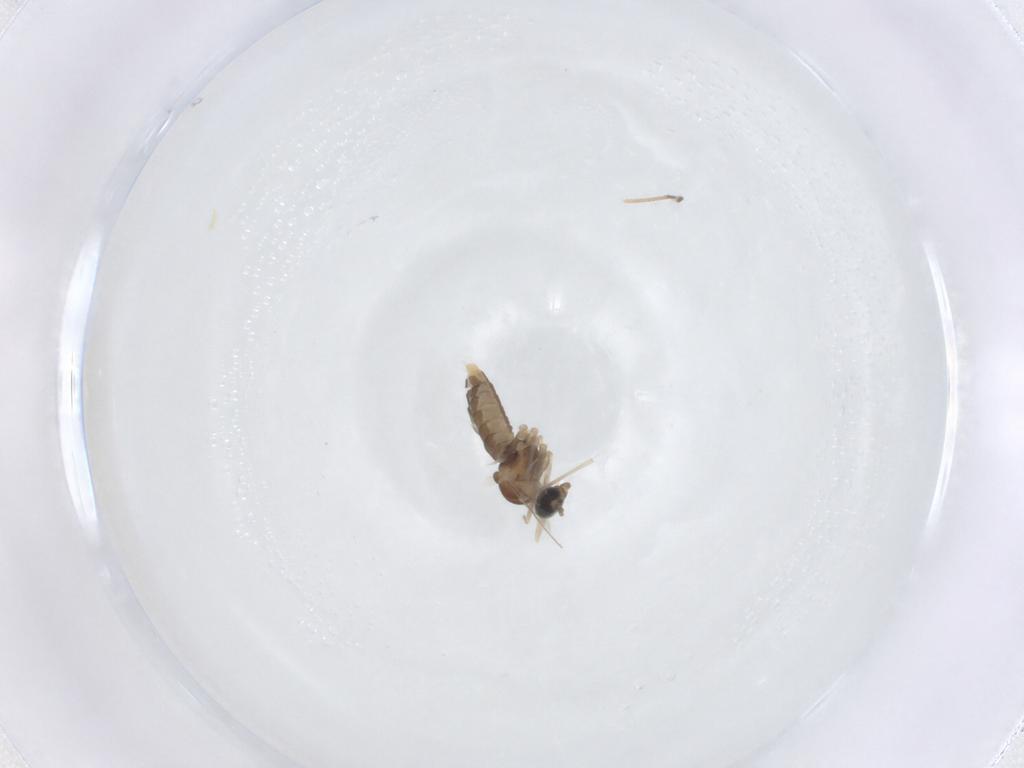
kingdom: Animalia
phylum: Arthropoda
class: Insecta
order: Diptera
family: Cecidomyiidae
